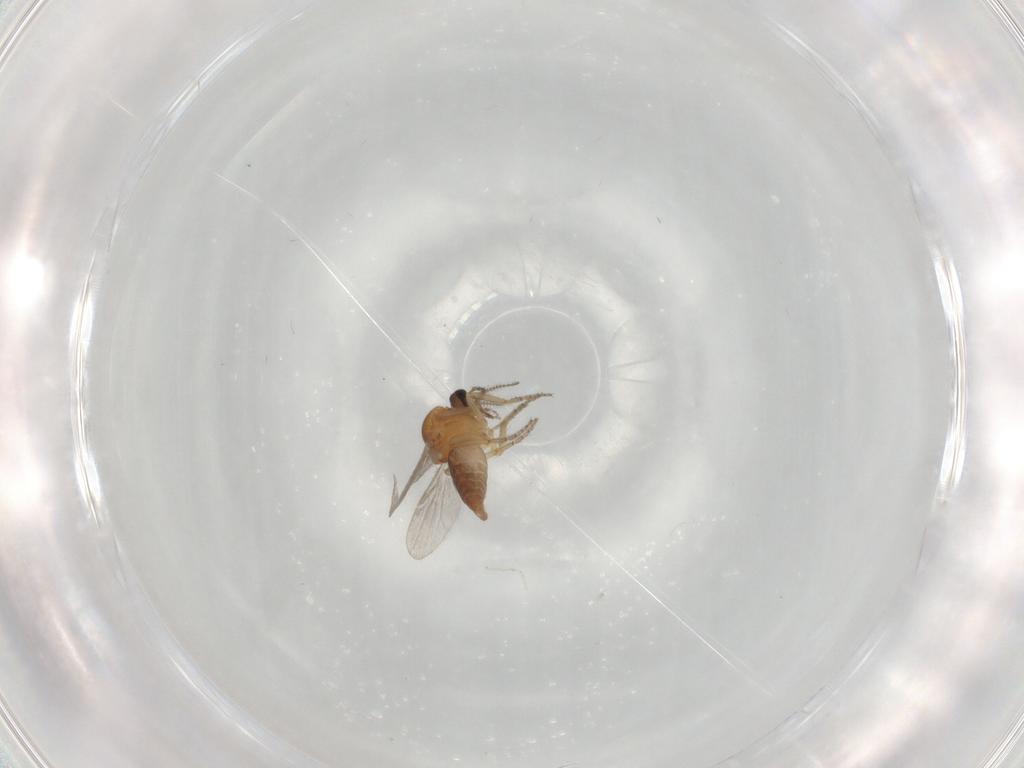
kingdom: Animalia
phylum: Arthropoda
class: Insecta
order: Diptera
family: Ceratopogonidae
